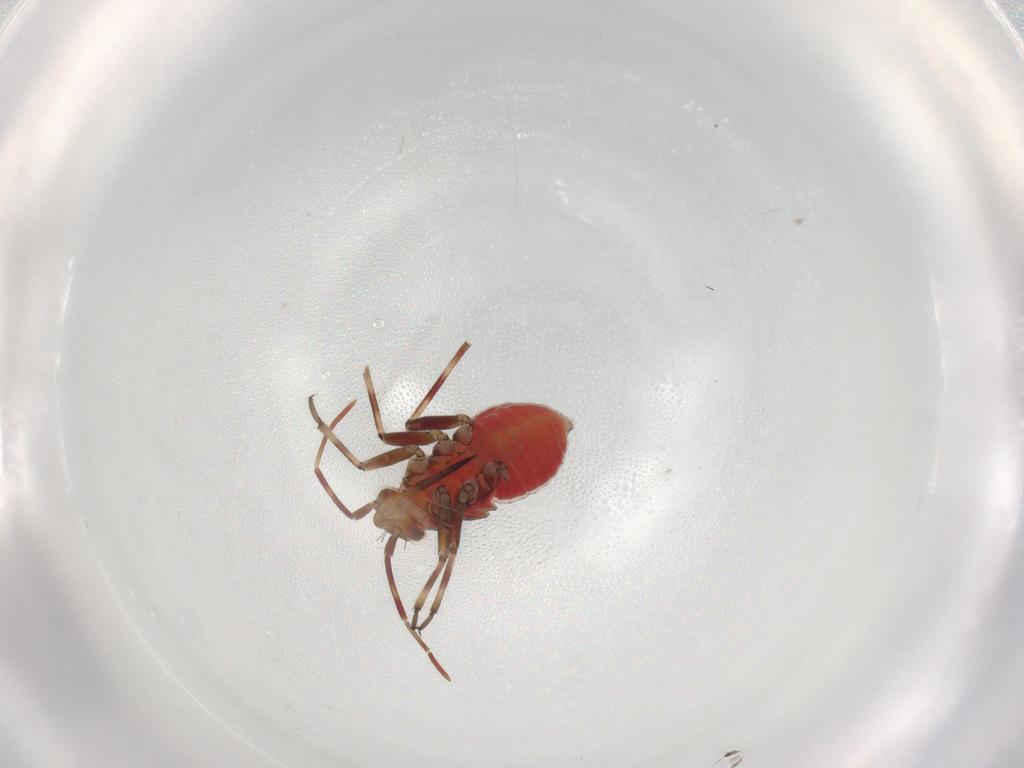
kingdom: Animalia
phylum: Arthropoda
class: Insecta
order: Hemiptera
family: Miridae
